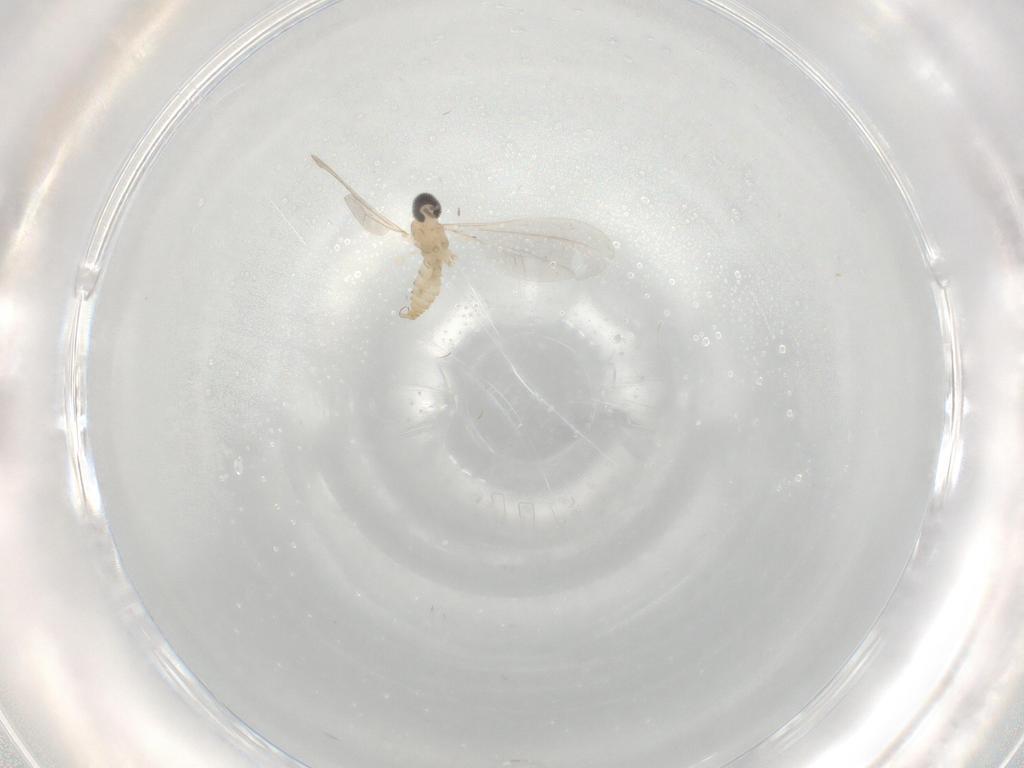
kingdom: Animalia
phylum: Arthropoda
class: Insecta
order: Diptera
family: Cecidomyiidae
